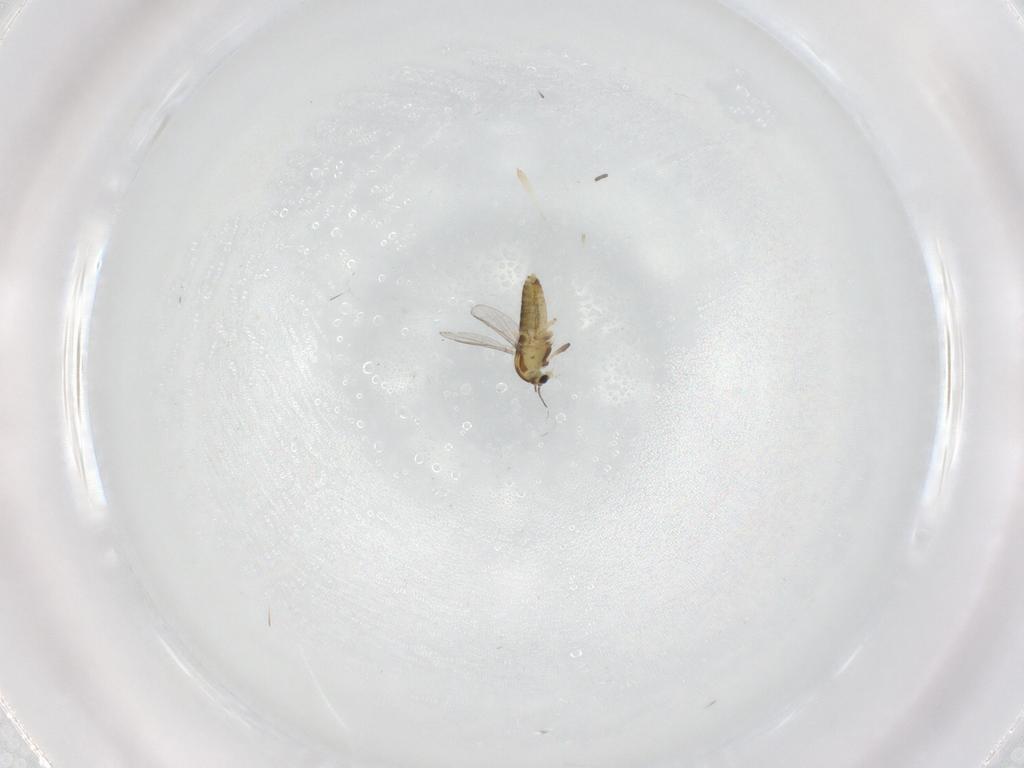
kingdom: Animalia
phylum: Arthropoda
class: Insecta
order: Diptera
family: Sciaridae
